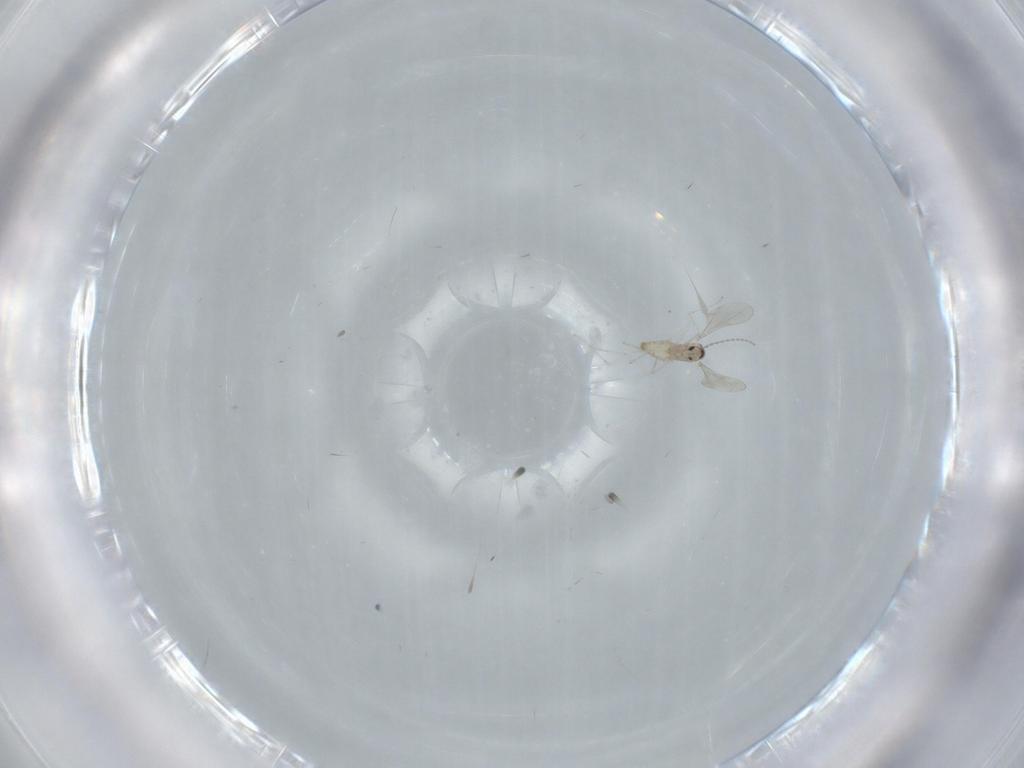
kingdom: Animalia
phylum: Arthropoda
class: Insecta
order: Diptera
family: Cecidomyiidae
